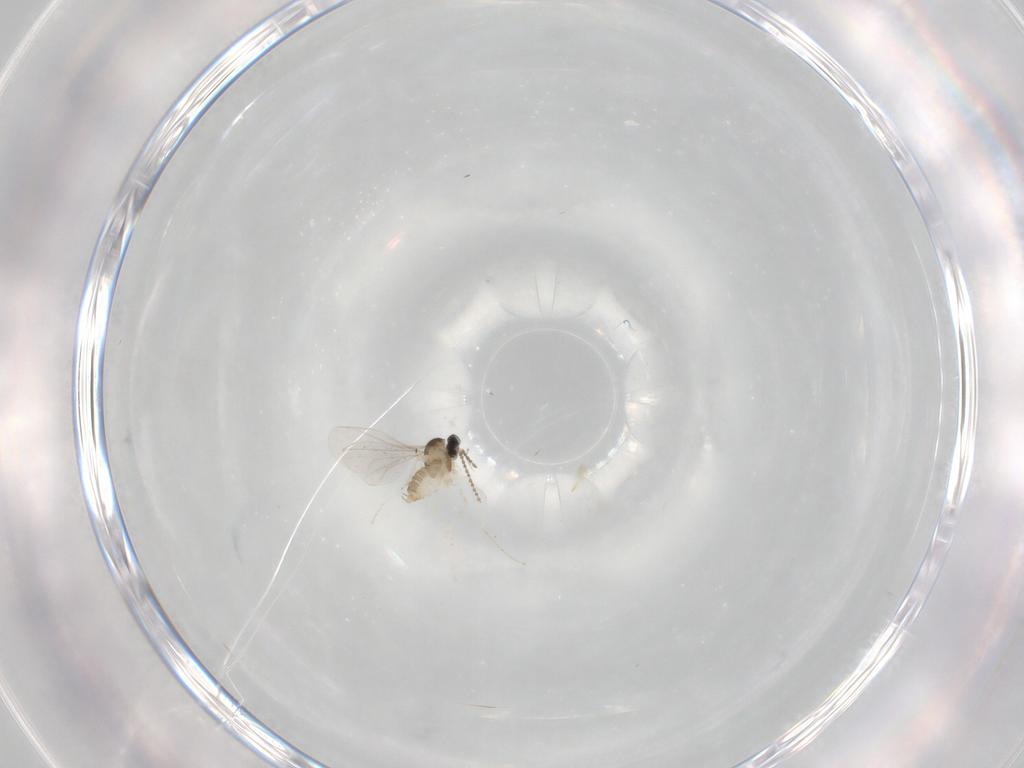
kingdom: Animalia
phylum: Arthropoda
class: Insecta
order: Diptera
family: Cecidomyiidae
